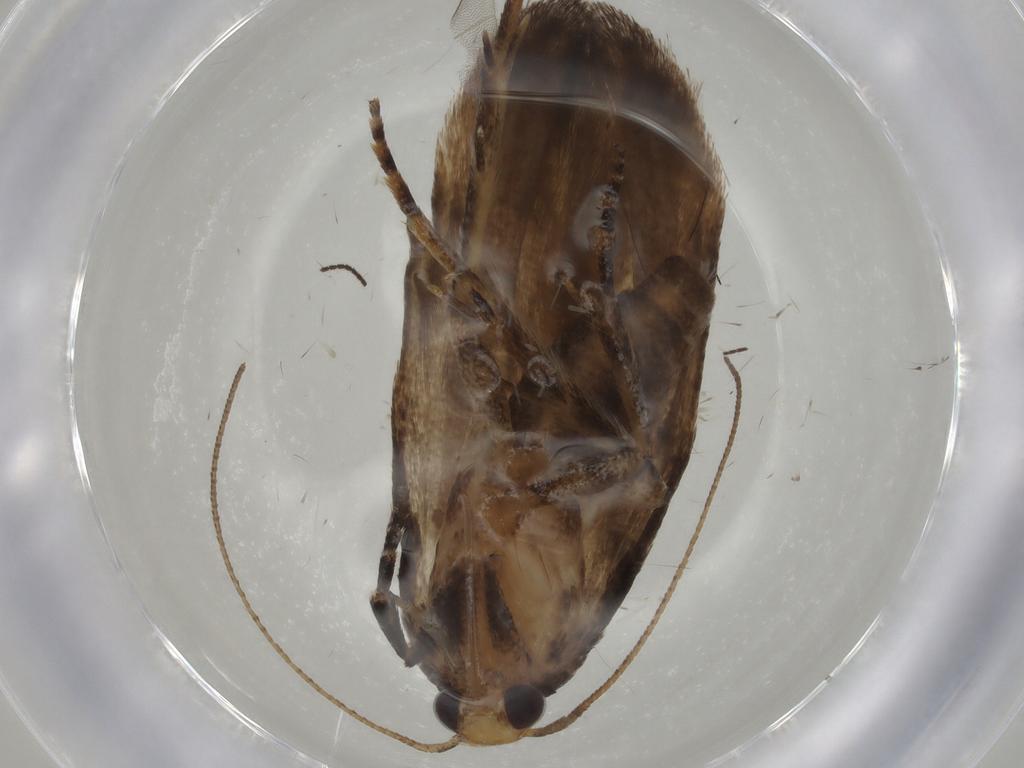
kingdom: Animalia
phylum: Arthropoda
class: Insecta
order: Lepidoptera
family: Gelechiidae
